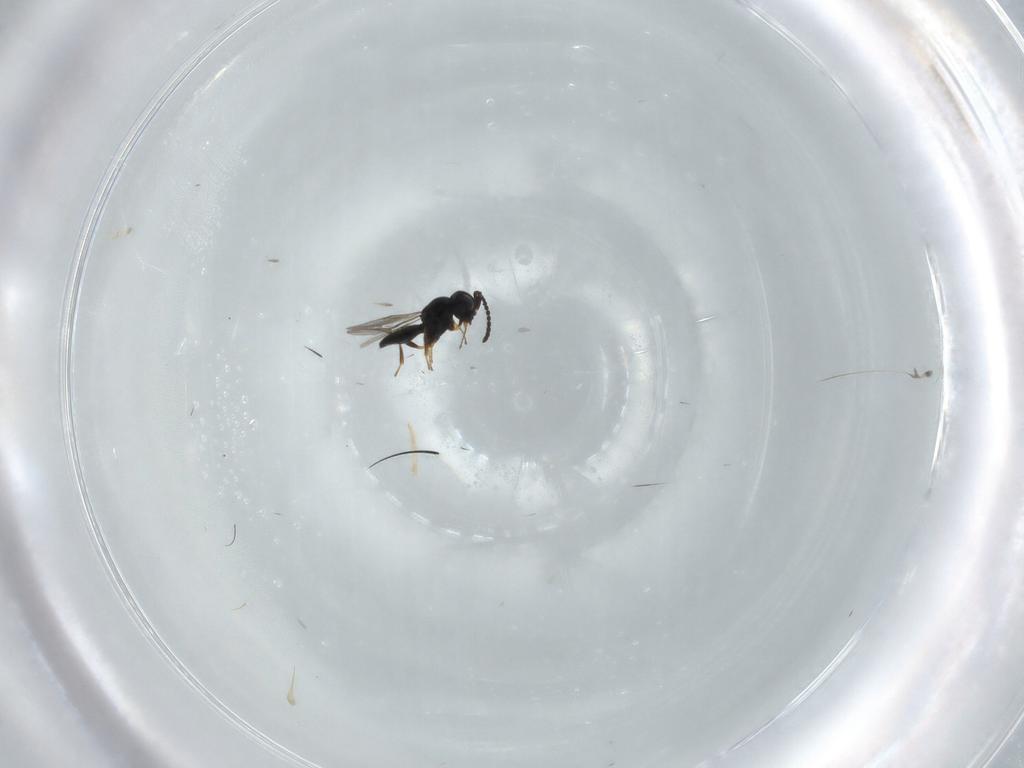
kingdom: Animalia
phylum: Arthropoda
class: Insecta
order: Hymenoptera
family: Scelionidae
